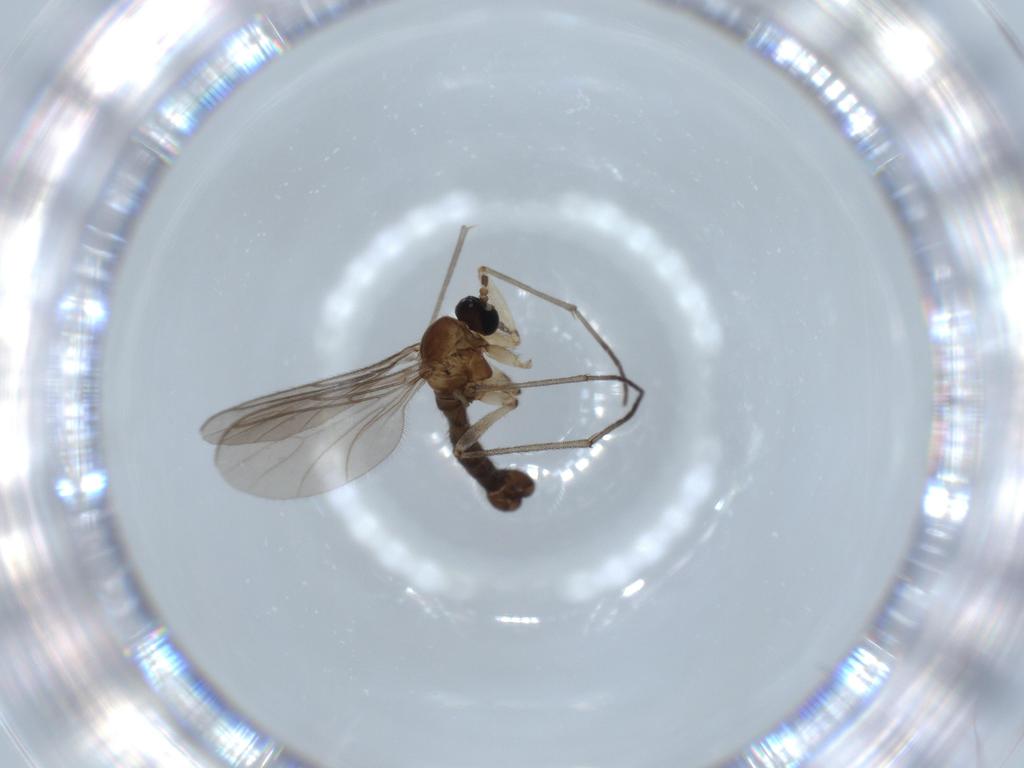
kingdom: Animalia
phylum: Arthropoda
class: Insecta
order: Diptera
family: Sciaridae
